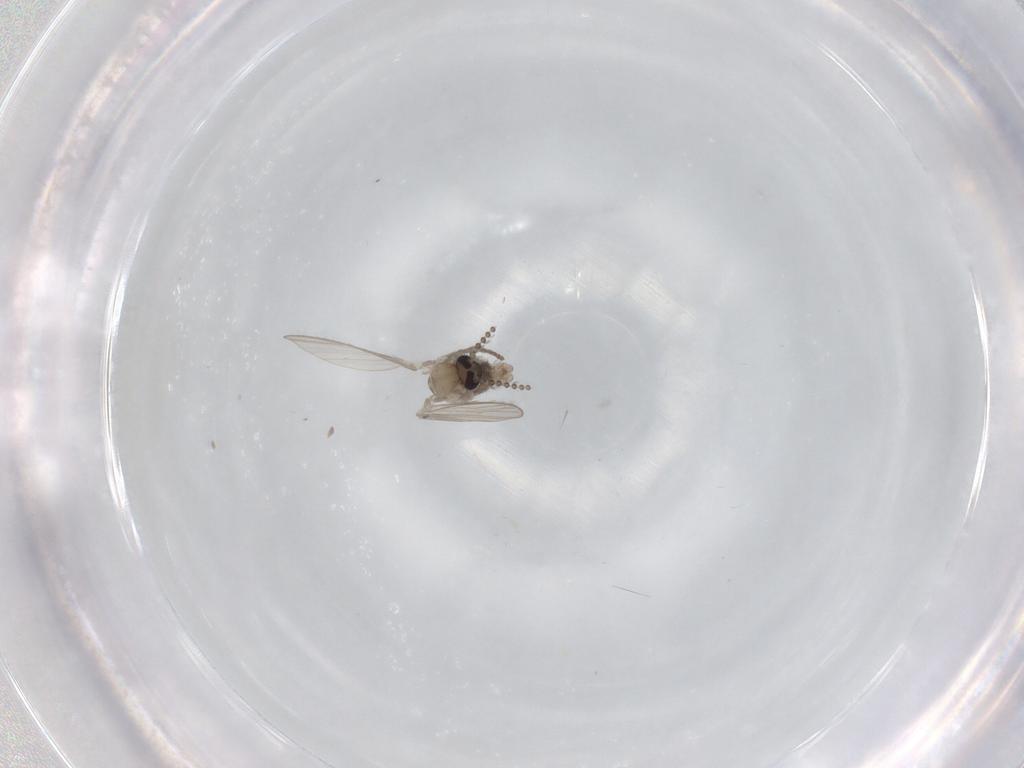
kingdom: Animalia
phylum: Arthropoda
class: Insecta
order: Diptera
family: Psychodidae
